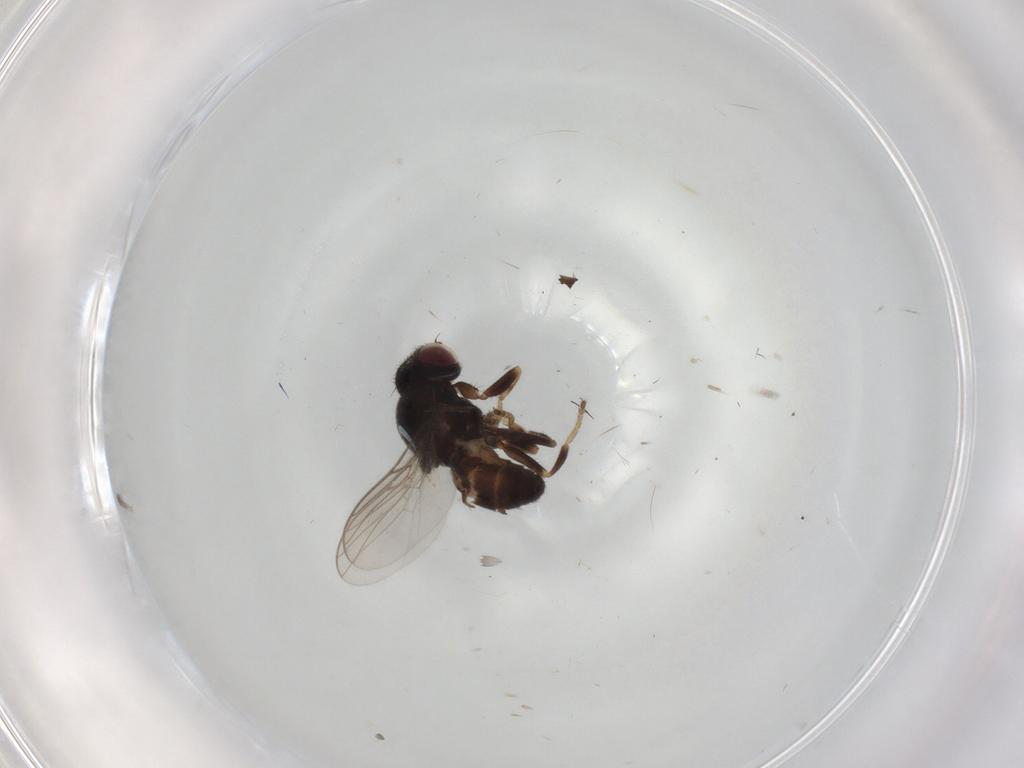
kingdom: Animalia
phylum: Arthropoda
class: Insecta
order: Diptera
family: Chloropidae
